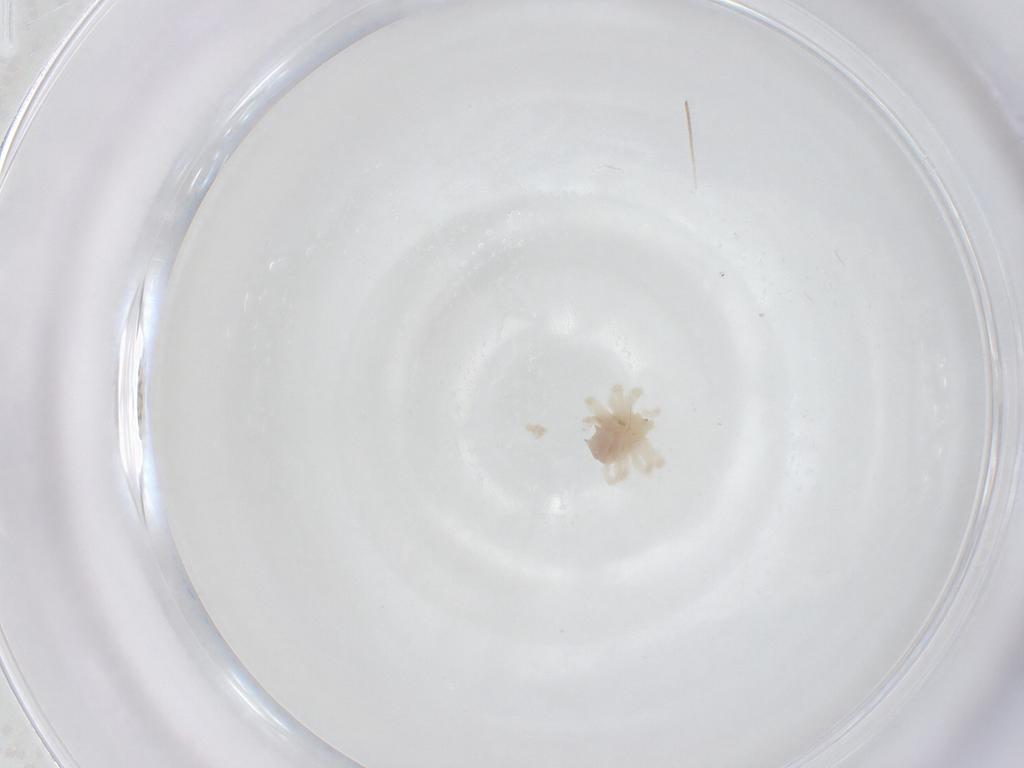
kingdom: Animalia
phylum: Arthropoda
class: Arachnida
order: Trombidiformes
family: Anystidae
